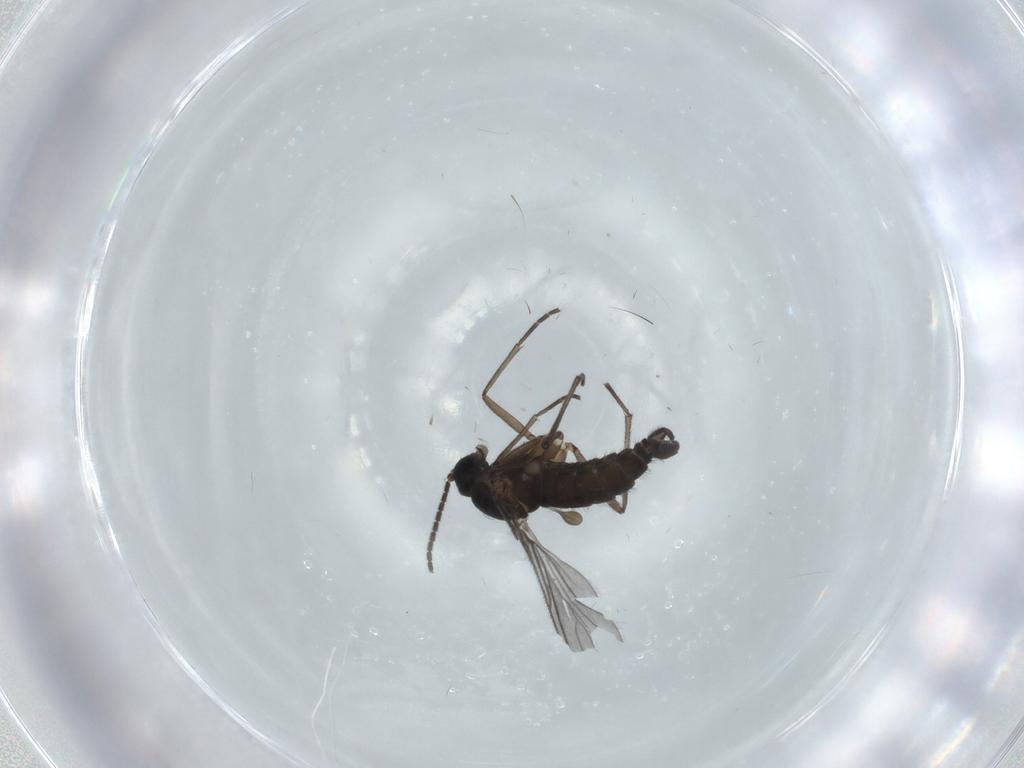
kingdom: Animalia
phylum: Arthropoda
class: Insecta
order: Diptera
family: Sciaridae
